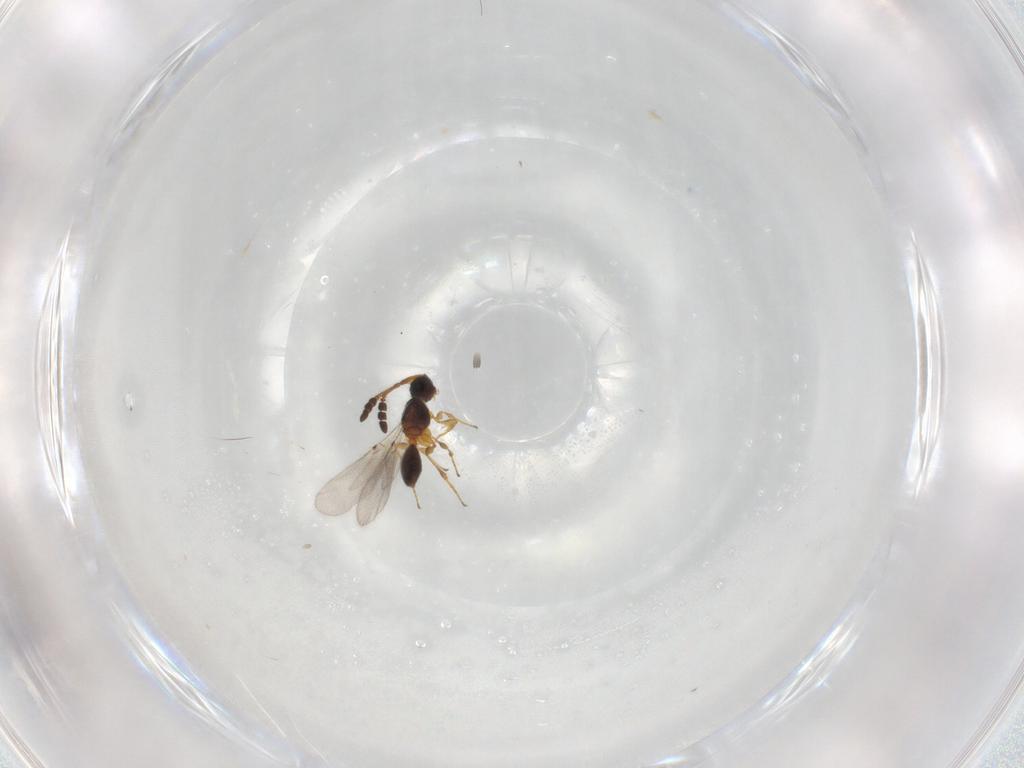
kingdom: Animalia
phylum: Arthropoda
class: Insecta
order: Hymenoptera
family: Diapriidae
